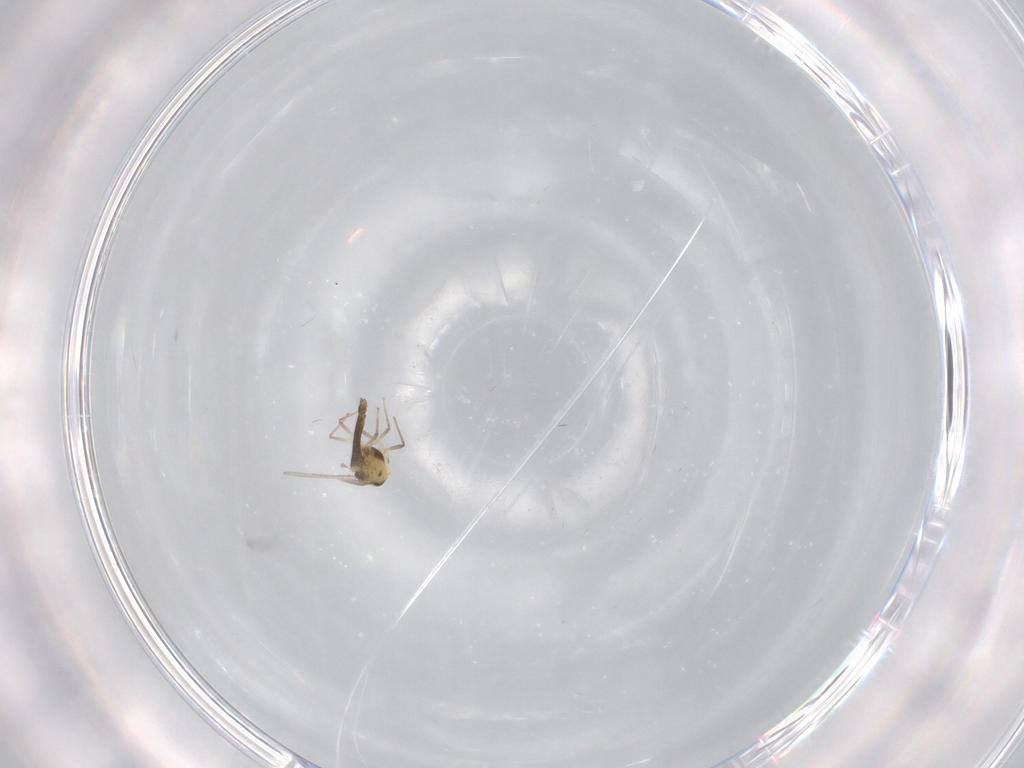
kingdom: Animalia
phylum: Arthropoda
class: Insecta
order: Diptera
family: Chironomidae
